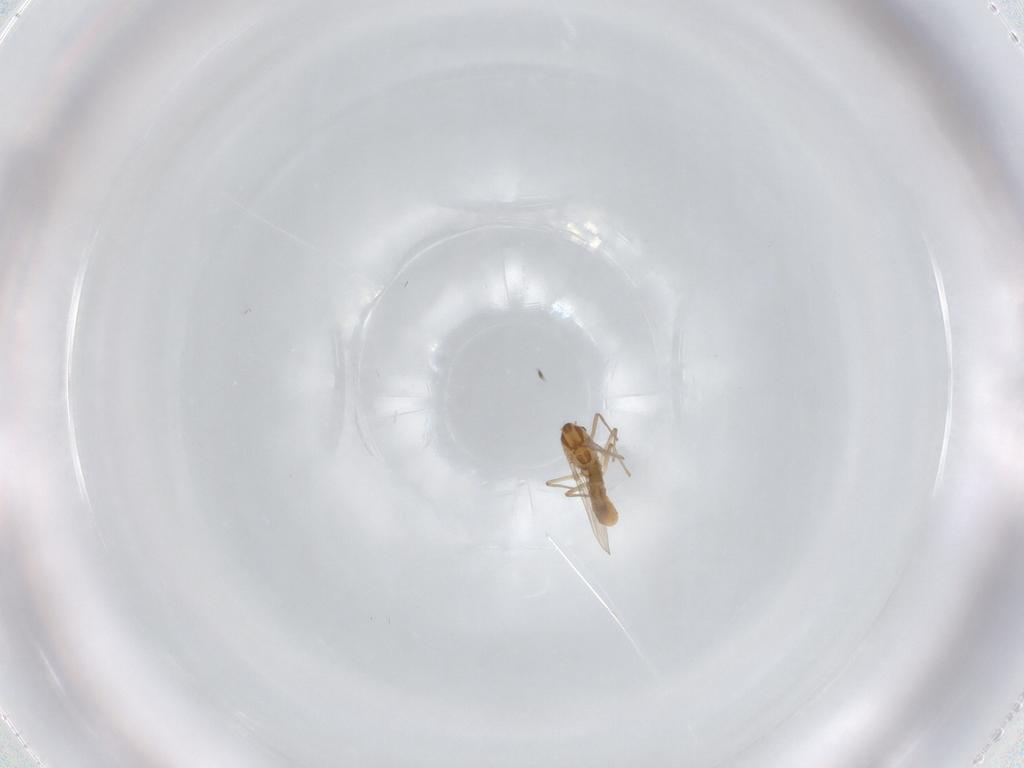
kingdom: Animalia
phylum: Arthropoda
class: Insecta
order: Diptera
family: Chironomidae
